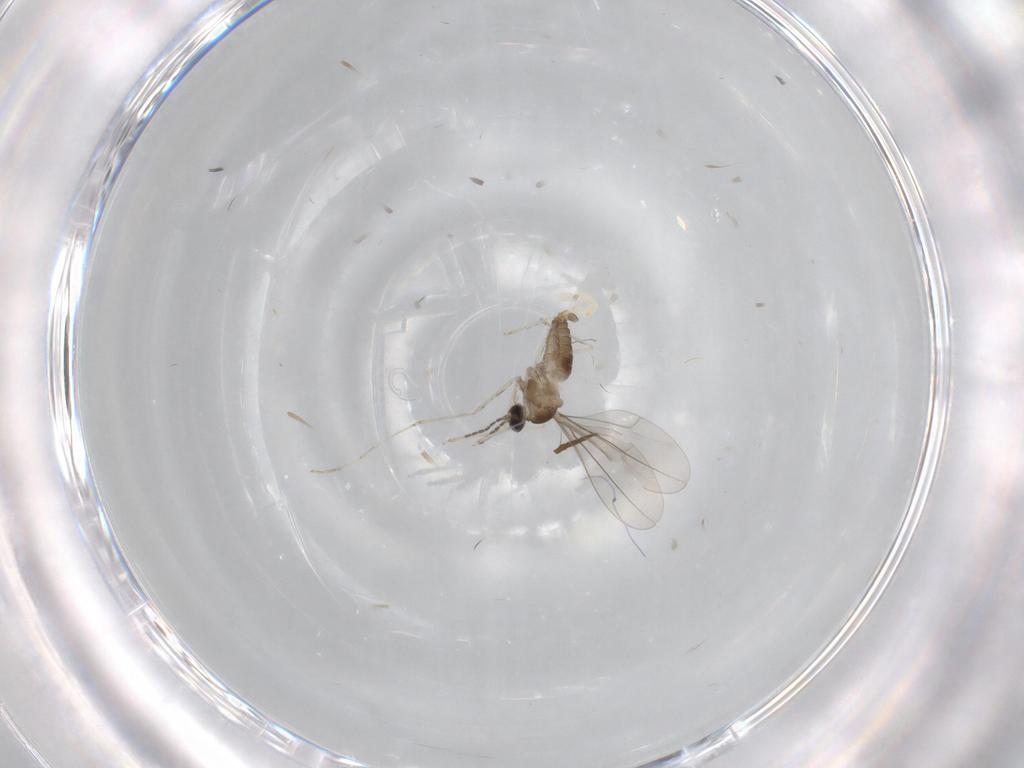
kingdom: Animalia
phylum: Arthropoda
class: Insecta
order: Diptera
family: Cecidomyiidae
